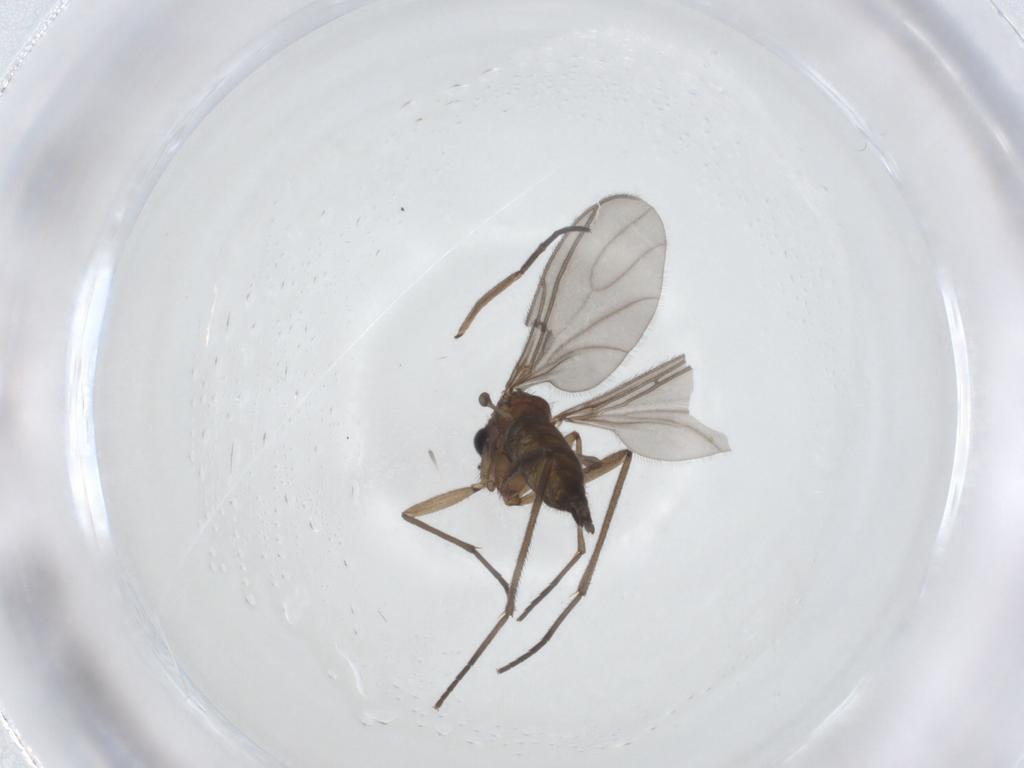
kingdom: Animalia
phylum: Arthropoda
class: Insecta
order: Diptera
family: Sciaridae
